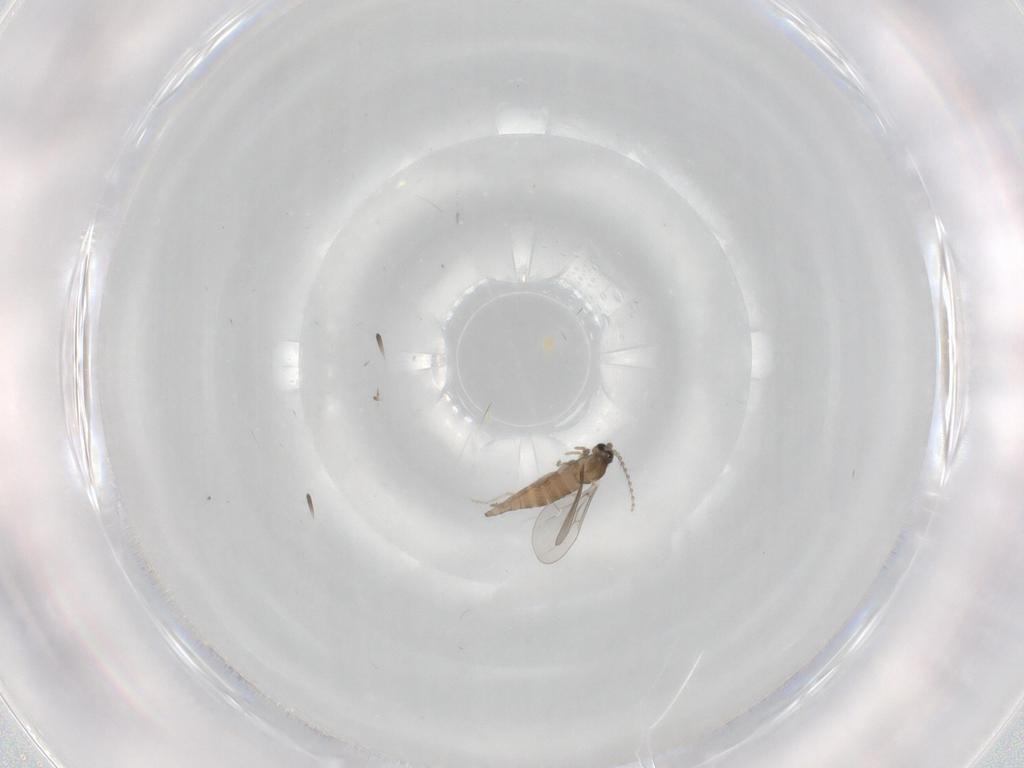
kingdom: Animalia
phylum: Arthropoda
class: Insecta
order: Diptera
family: Cecidomyiidae
